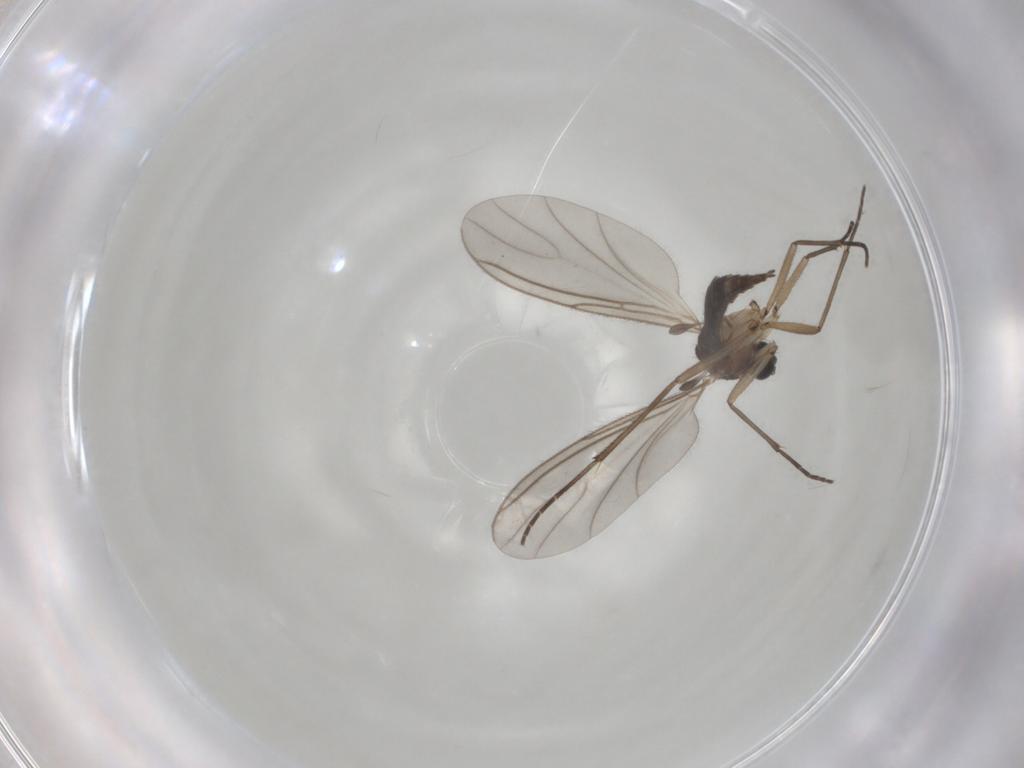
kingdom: Animalia
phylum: Arthropoda
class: Insecta
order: Diptera
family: Sciaridae
